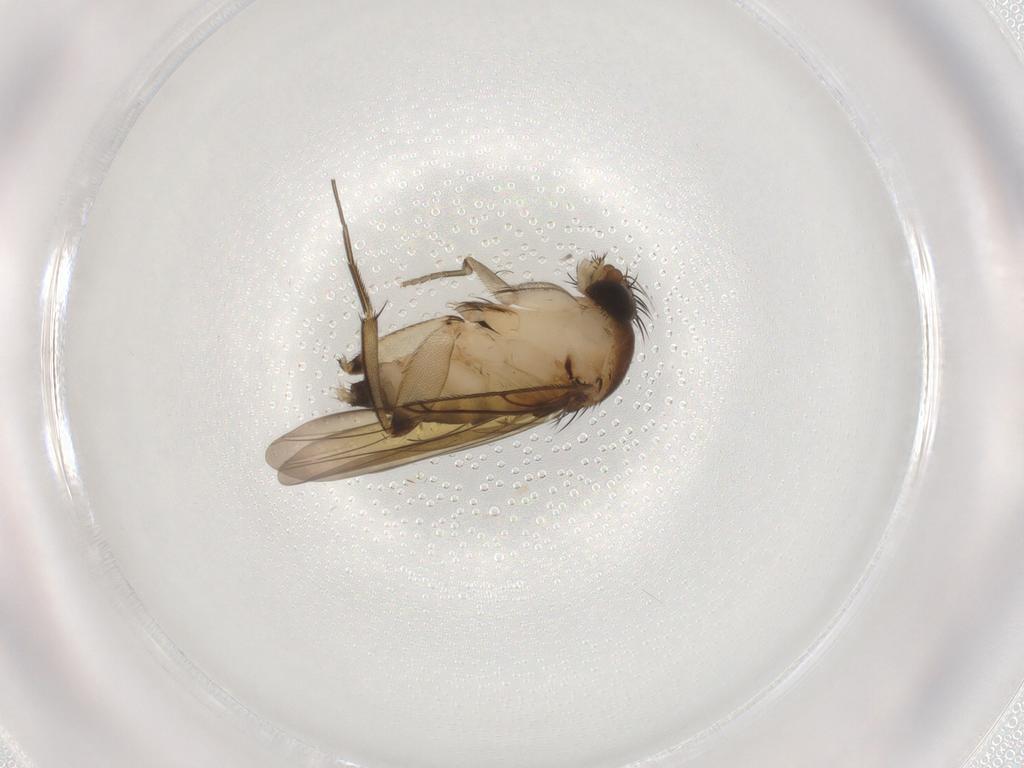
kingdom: Animalia
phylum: Arthropoda
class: Insecta
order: Diptera
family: Phoridae
